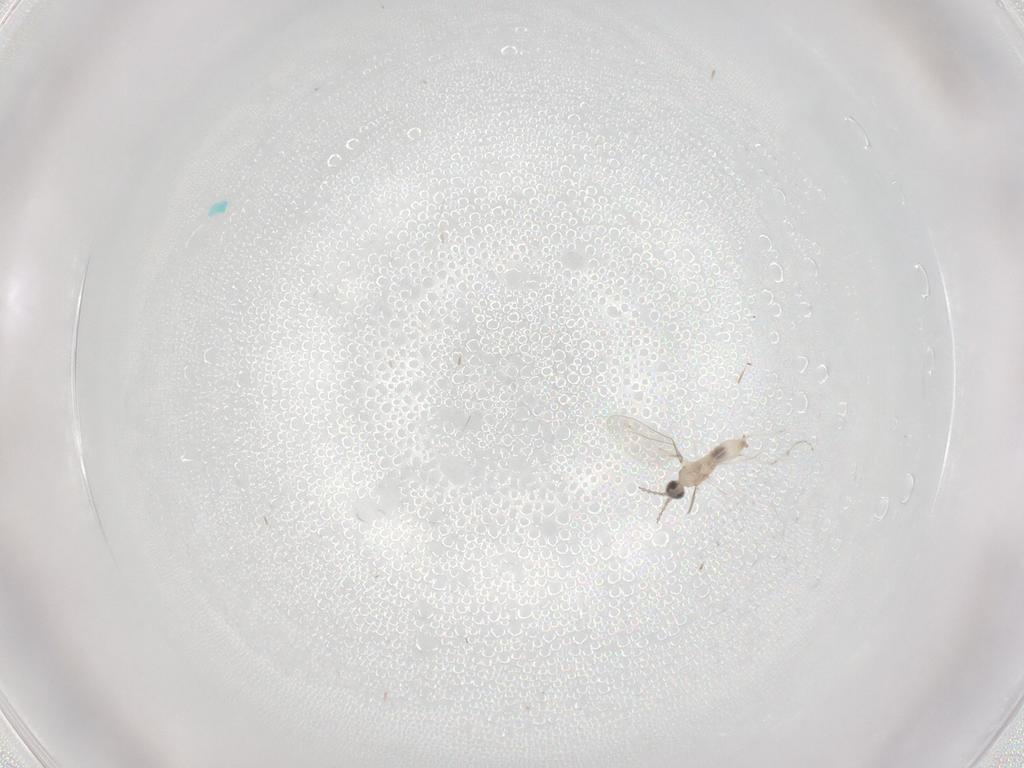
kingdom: Animalia
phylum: Arthropoda
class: Insecta
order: Diptera
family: Cecidomyiidae
